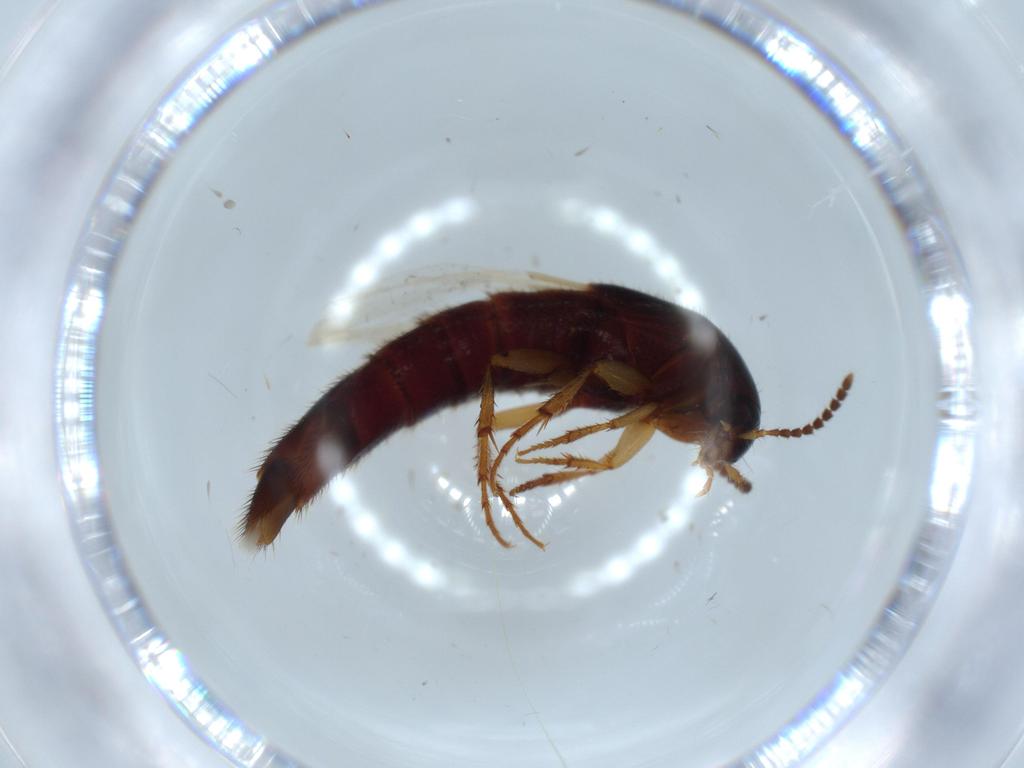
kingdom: Animalia
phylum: Arthropoda
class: Insecta
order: Coleoptera
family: Staphylinidae
